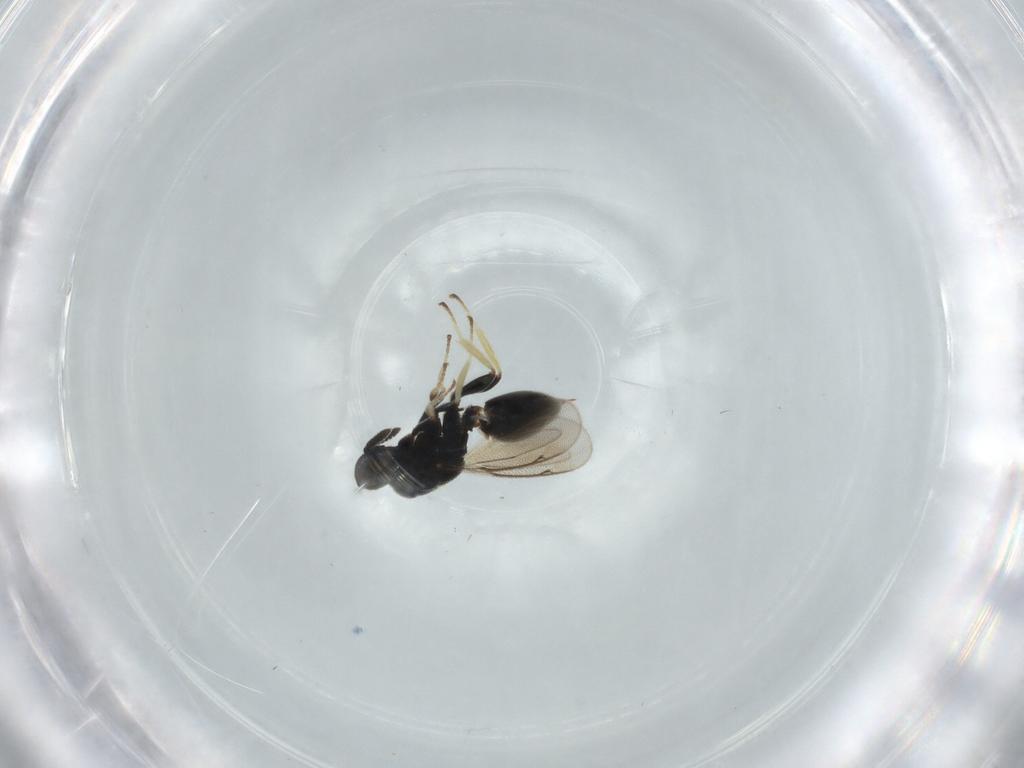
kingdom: Animalia
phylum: Arthropoda
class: Insecta
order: Hymenoptera
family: Herbertiidae
